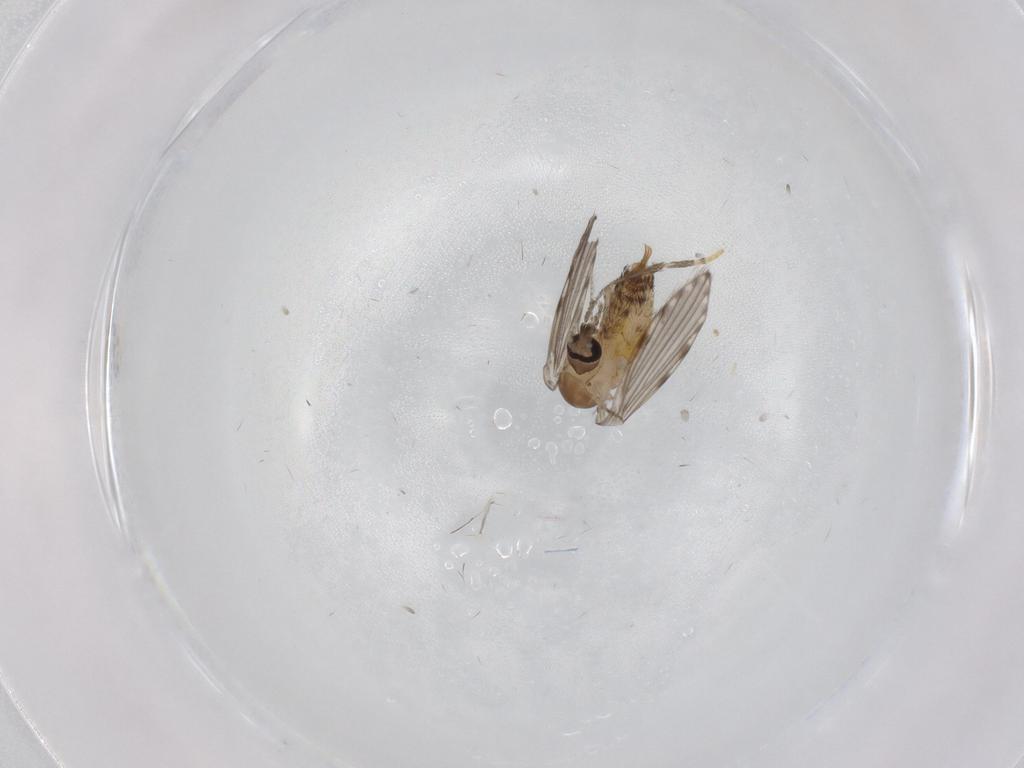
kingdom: Animalia
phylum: Arthropoda
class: Insecta
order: Diptera
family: Psychodidae
